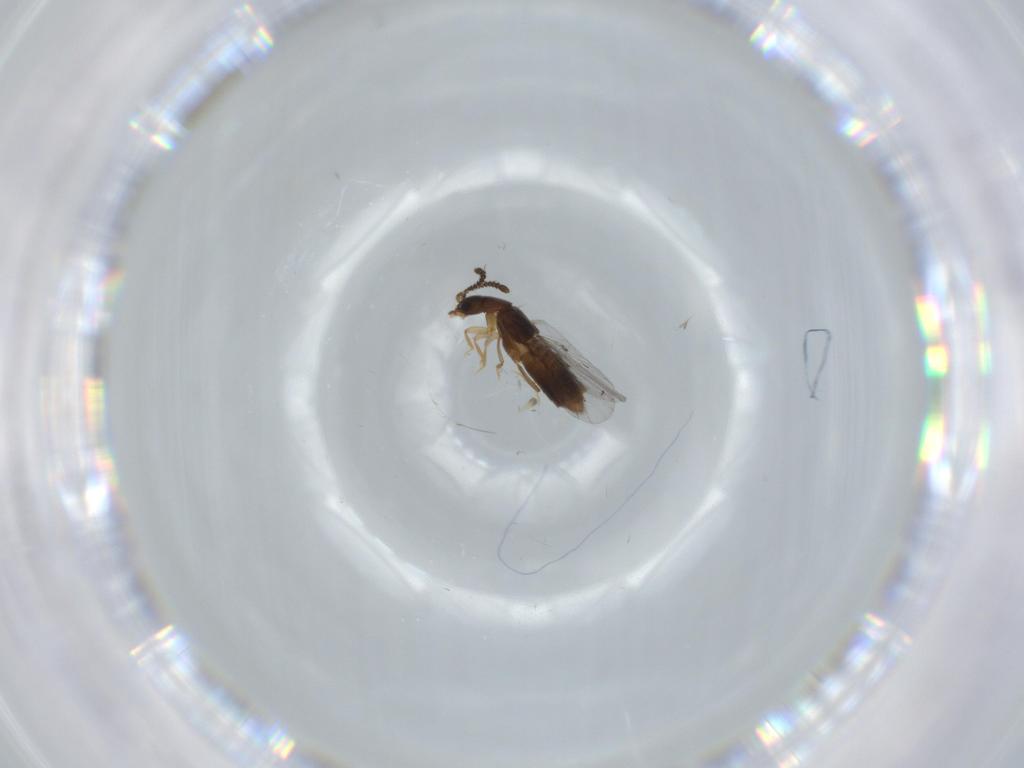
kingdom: Animalia
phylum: Arthropoda
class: Insecta
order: Coleoptera
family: Staphylinidae
